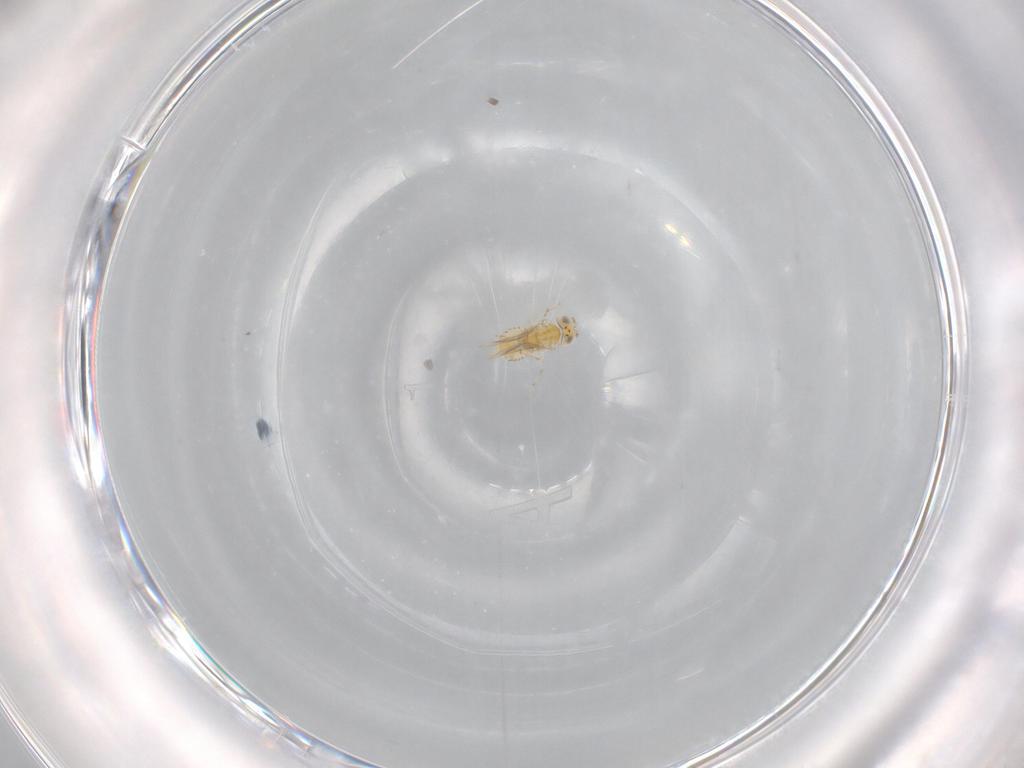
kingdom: Animalia
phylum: Arthropoda
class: Insecta
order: Hymenoptera
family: Aphelinidae
